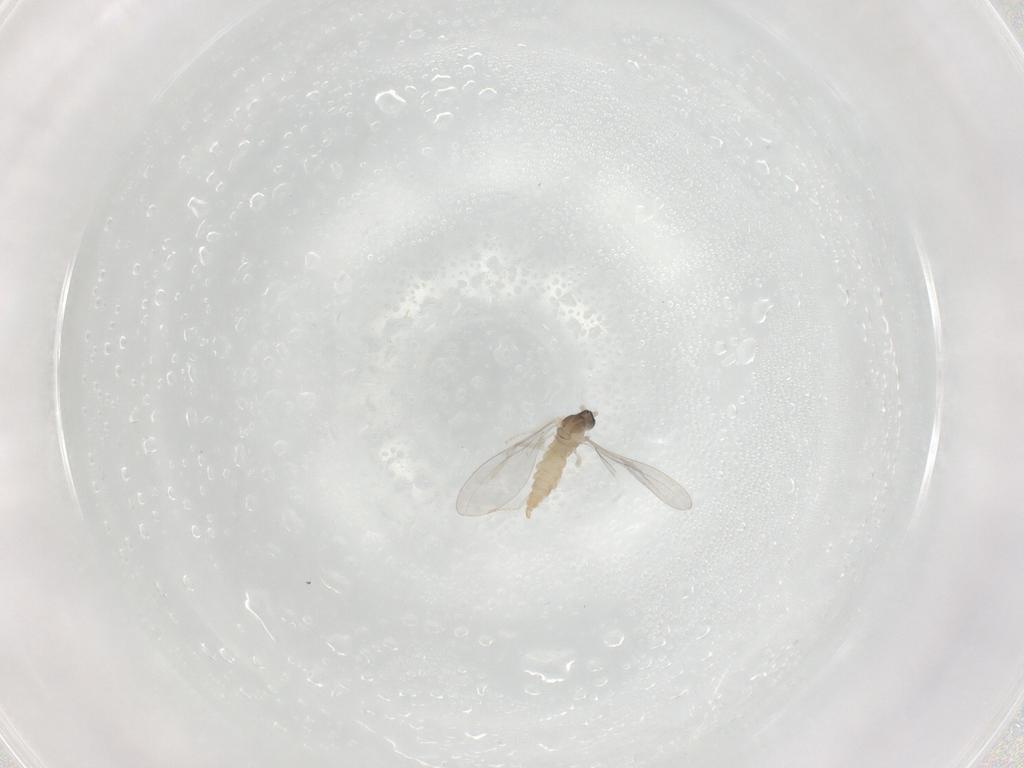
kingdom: Animalia
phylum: Arthropoda
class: Insecta
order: Diptera
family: Cecidomyiidae
